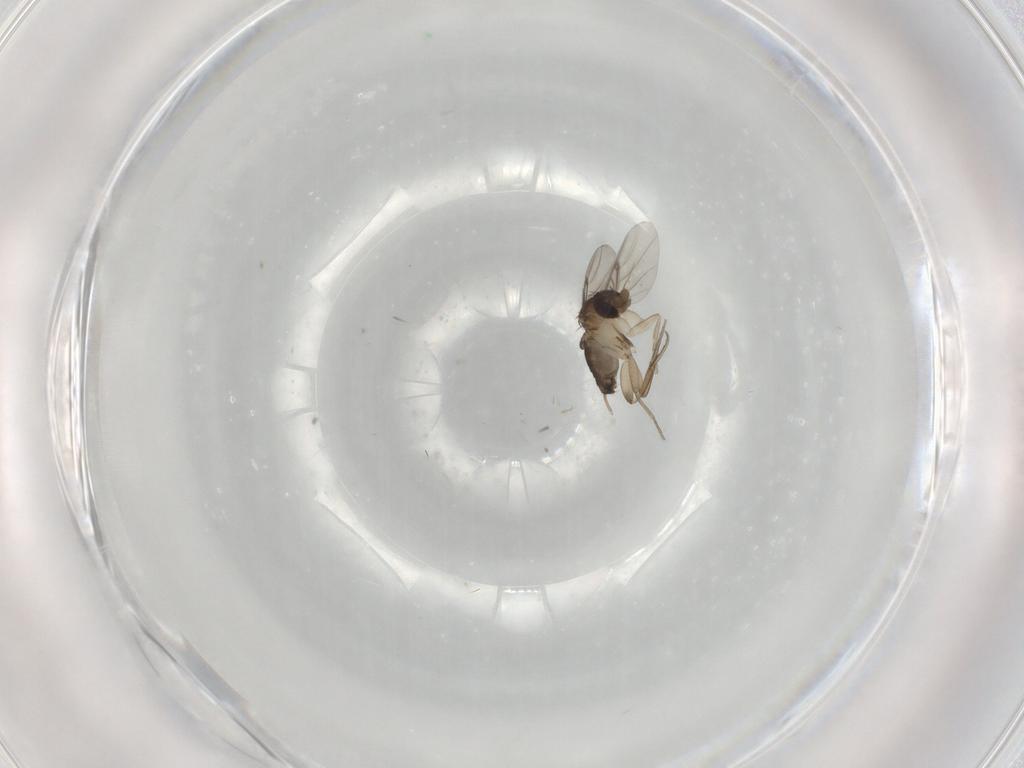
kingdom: Animalia
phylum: Arthropoda
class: Insecta
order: Diptera
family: Phoridae
